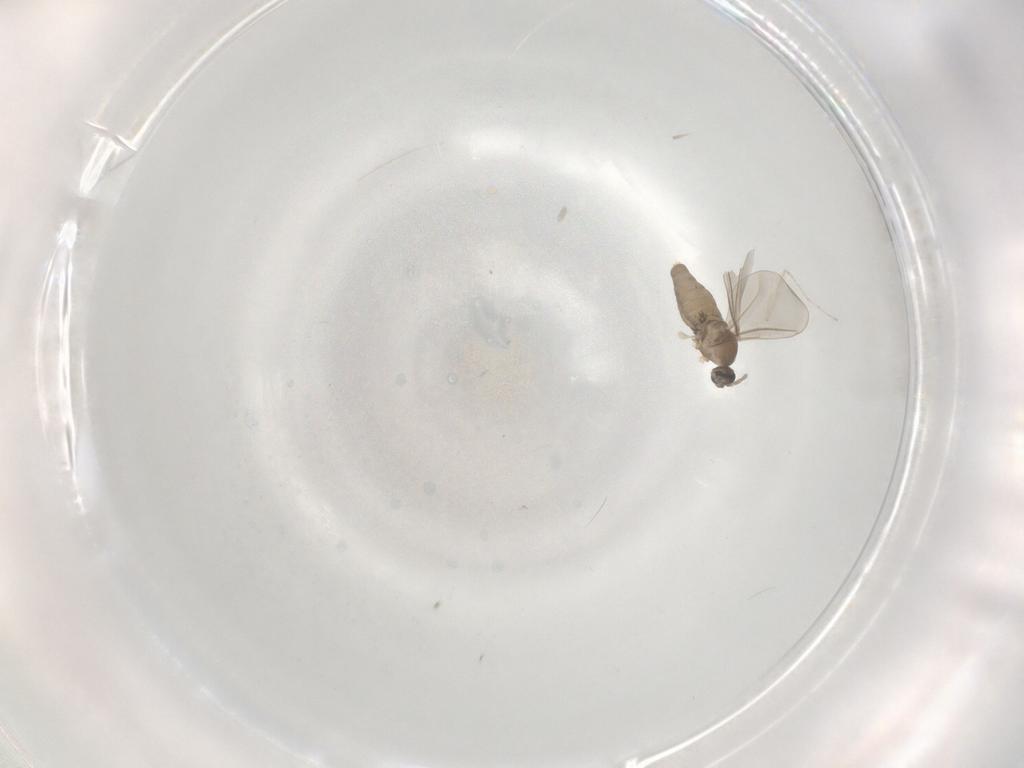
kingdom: Animalia
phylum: Arthropoda
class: Insecta
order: Diptera
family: Cecidomyiidae
